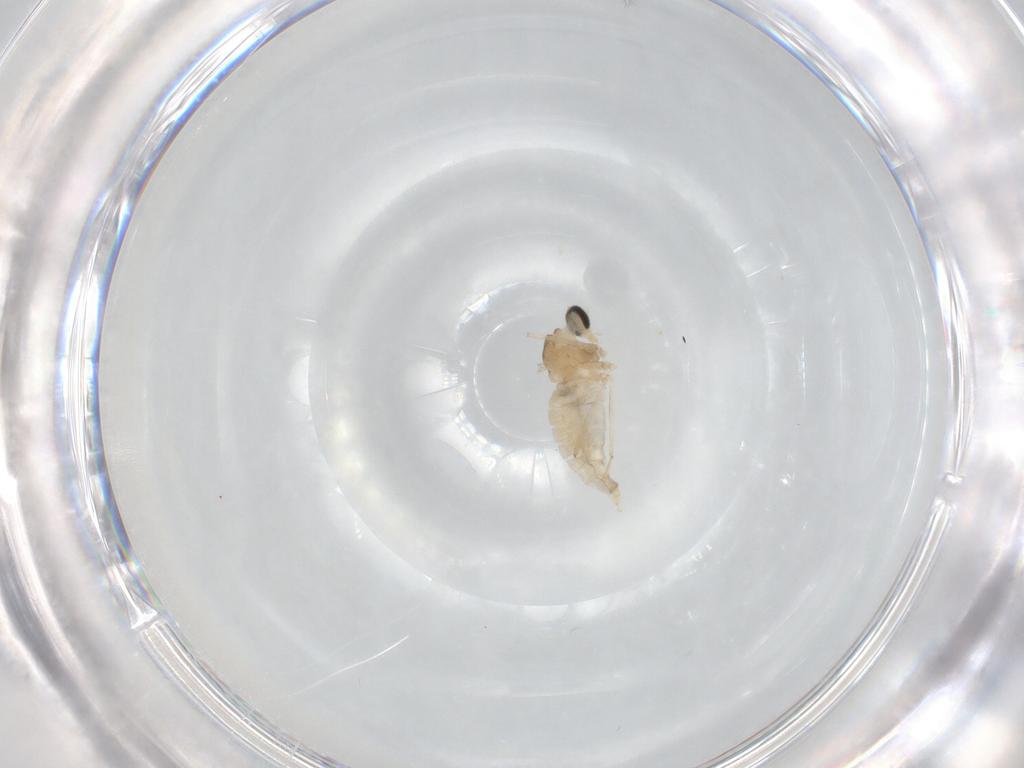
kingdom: Animalia
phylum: Arthropoda
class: Insecta
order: Diptera
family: Cecidomyiidae
